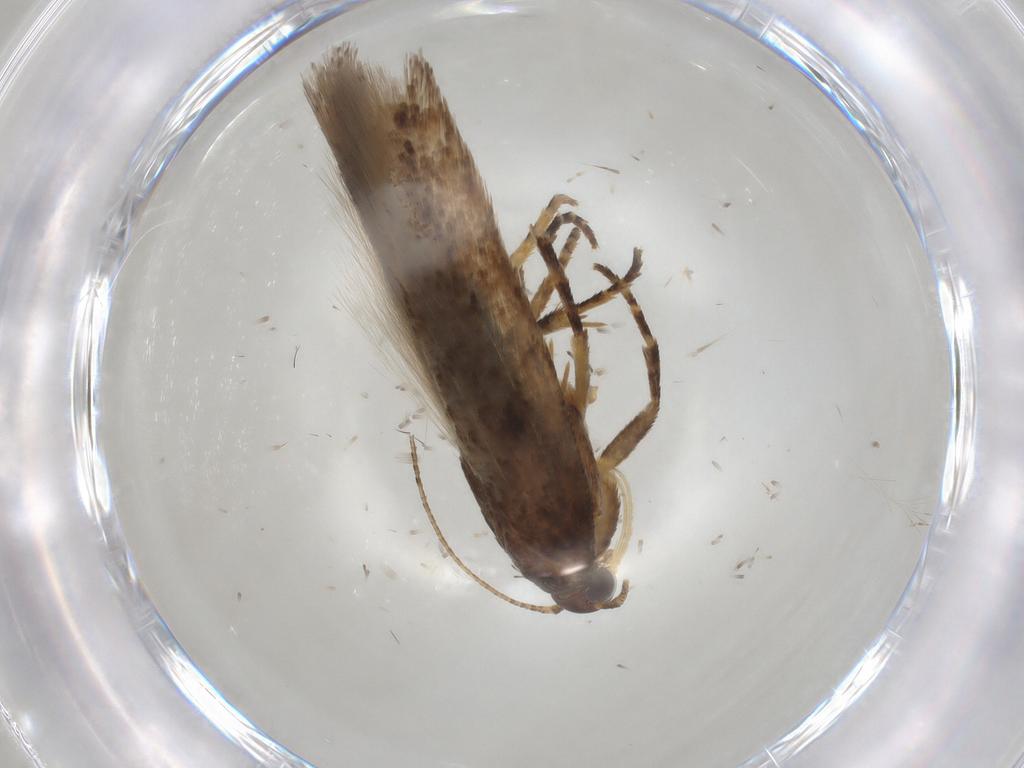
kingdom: Animalia
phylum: Arthropoda
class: Insecta
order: Lepidoptera
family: Gelechiidae
